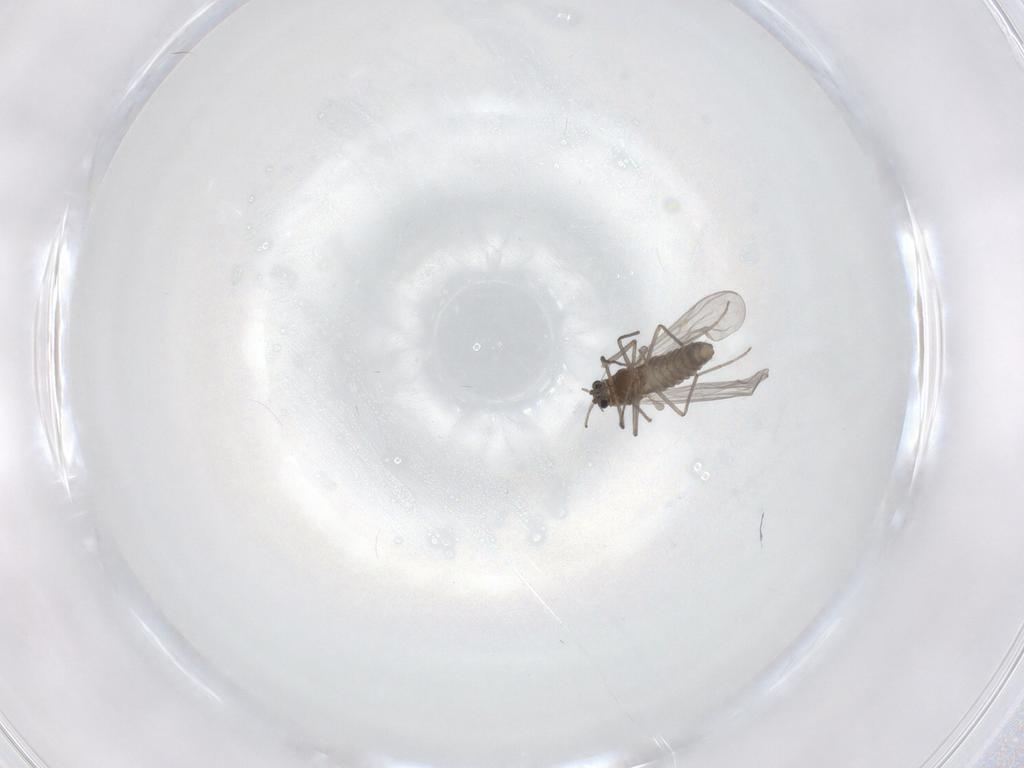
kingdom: Animalia
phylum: Arthropoda
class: Insecta
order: Diptera
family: Chironomidae
